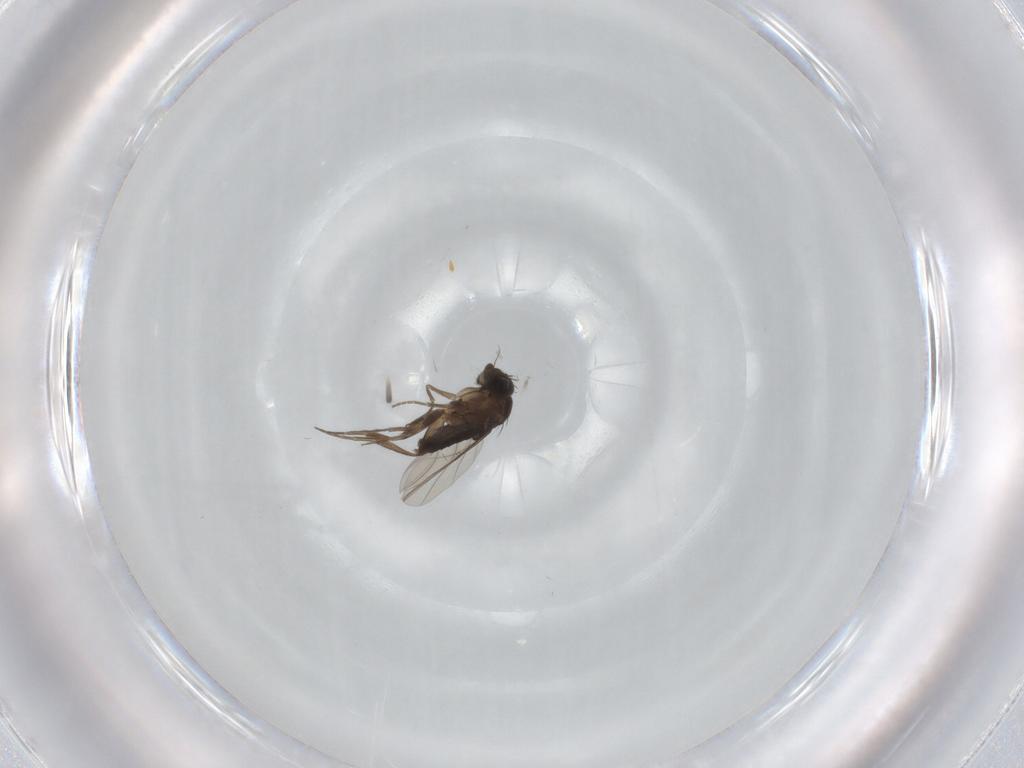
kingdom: Animalia
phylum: Arthropoda
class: Insecta
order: Diptera
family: Phoridae
